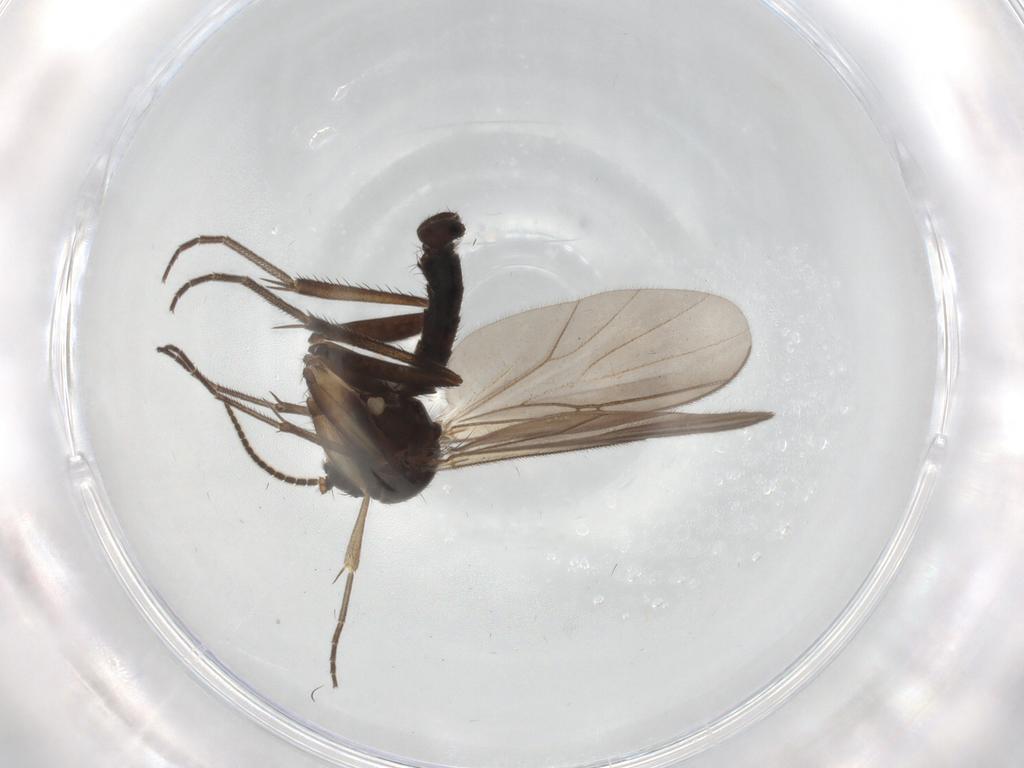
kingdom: Animalia
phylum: Arthropoda
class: Insecta
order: Diptera
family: Mycetophilidae
